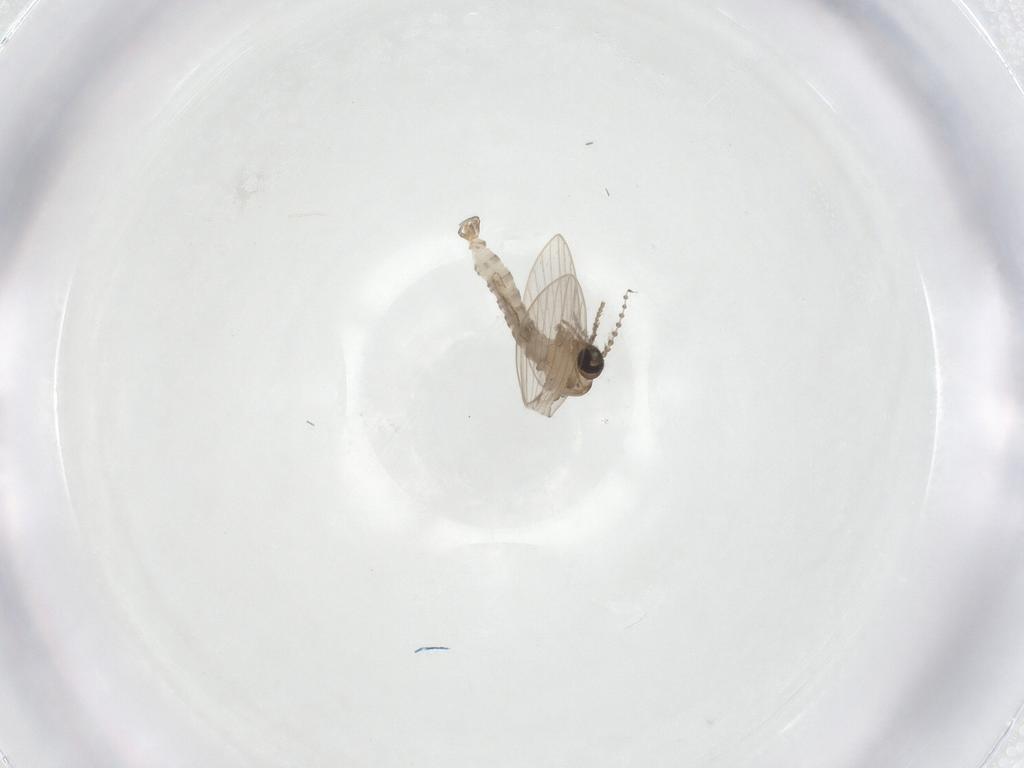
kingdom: Animalia
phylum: Arthropoda
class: Insecta
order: Diptera
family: Psychodidae
